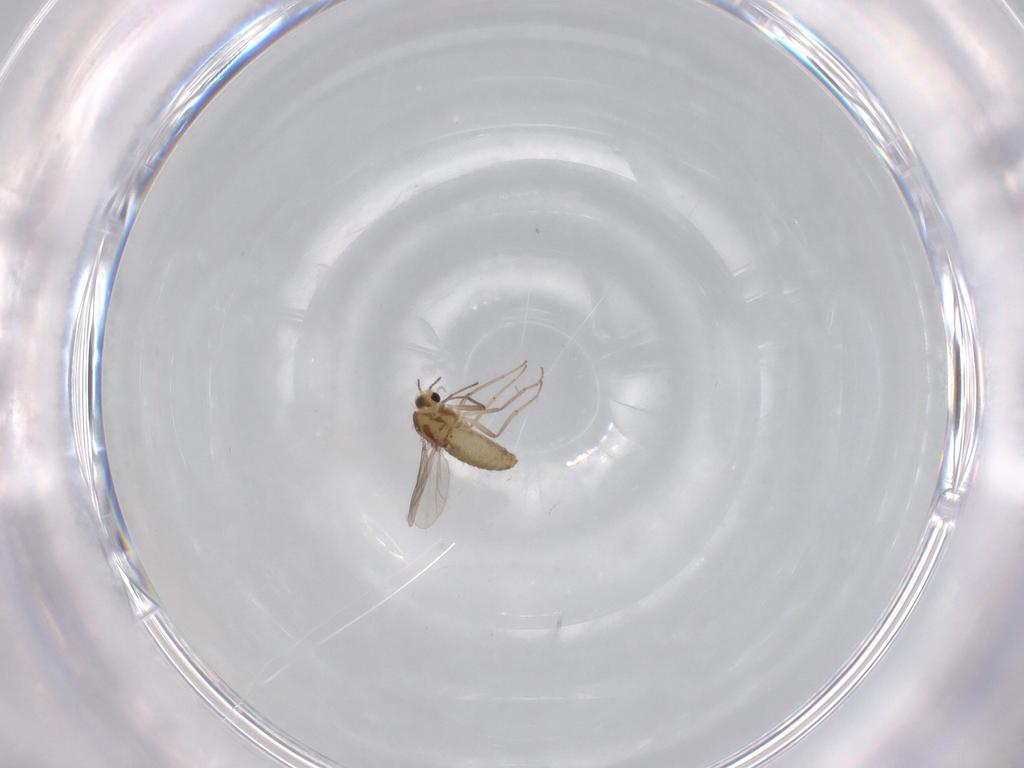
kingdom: Animalia
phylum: Arthropoda
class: Insecta
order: Diptera
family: Chironomidae
